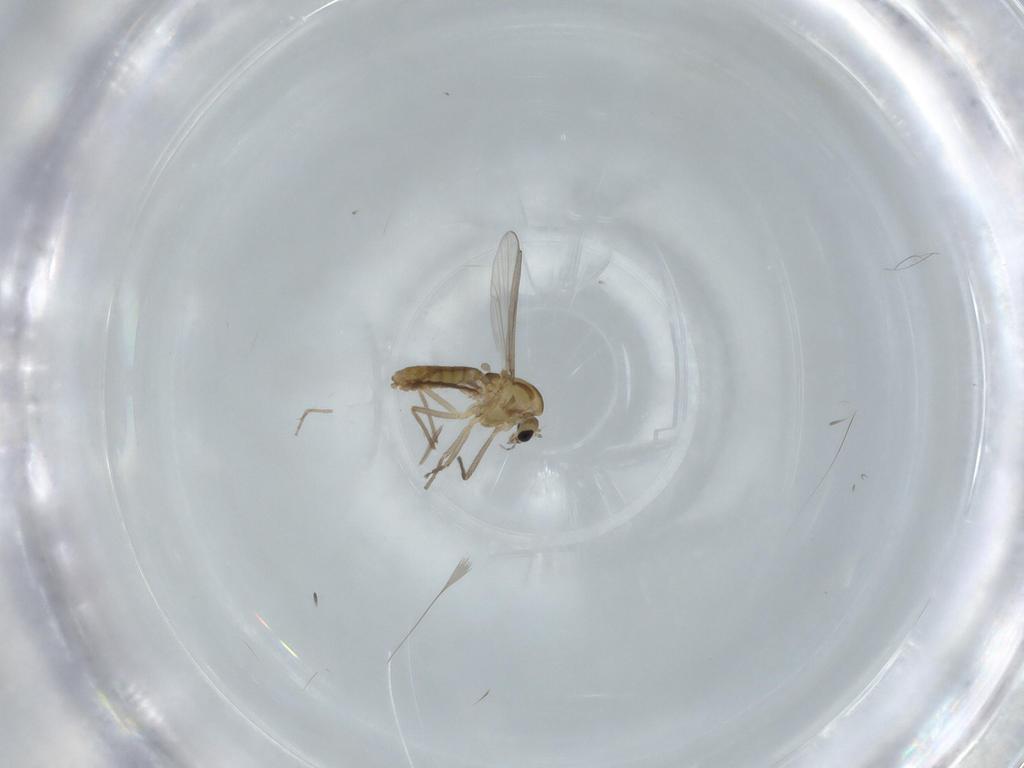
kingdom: Animalia
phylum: Arthropoda
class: Insecta
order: Diptera
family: Chironomidae
